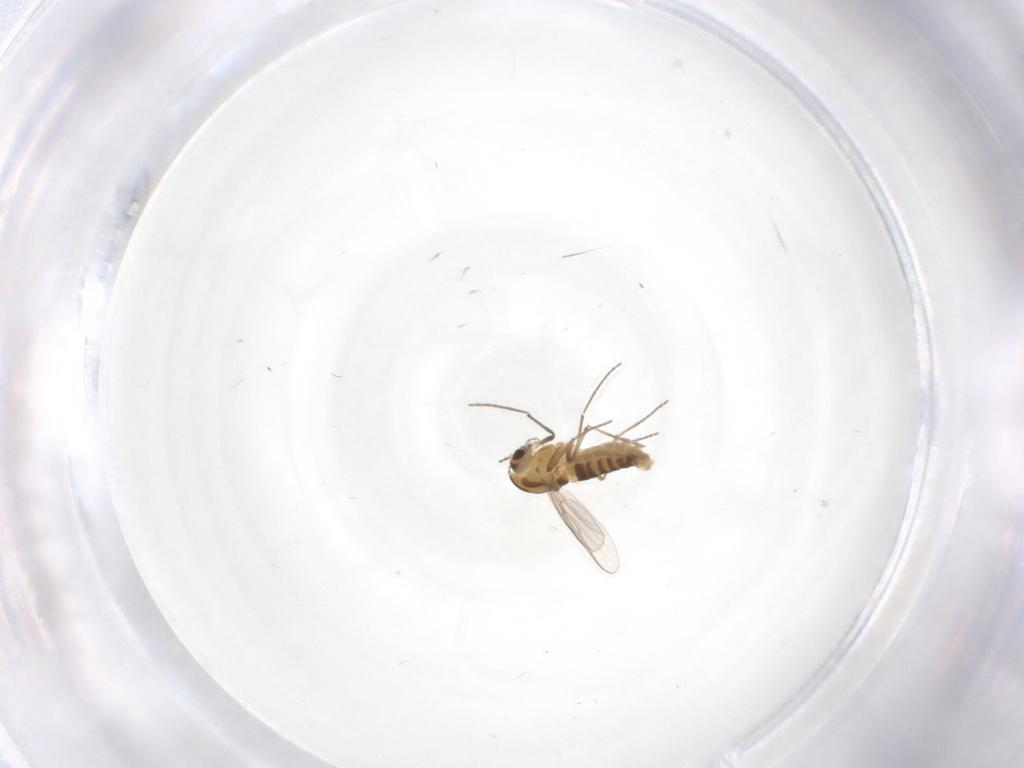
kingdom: Animalia
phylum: Arthropoda
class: Insecta
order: Diptera
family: Cecidomyiidae
